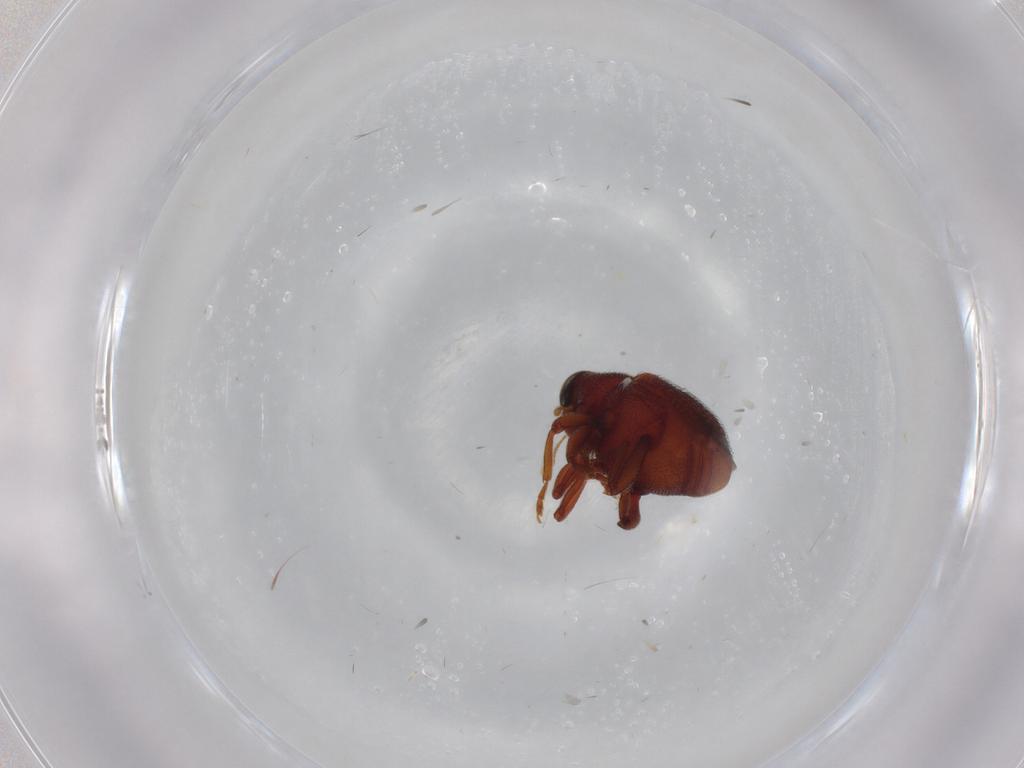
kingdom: Animalia
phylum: Arthropoda
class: Insecta
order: Coleoptera
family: Curculionidae
